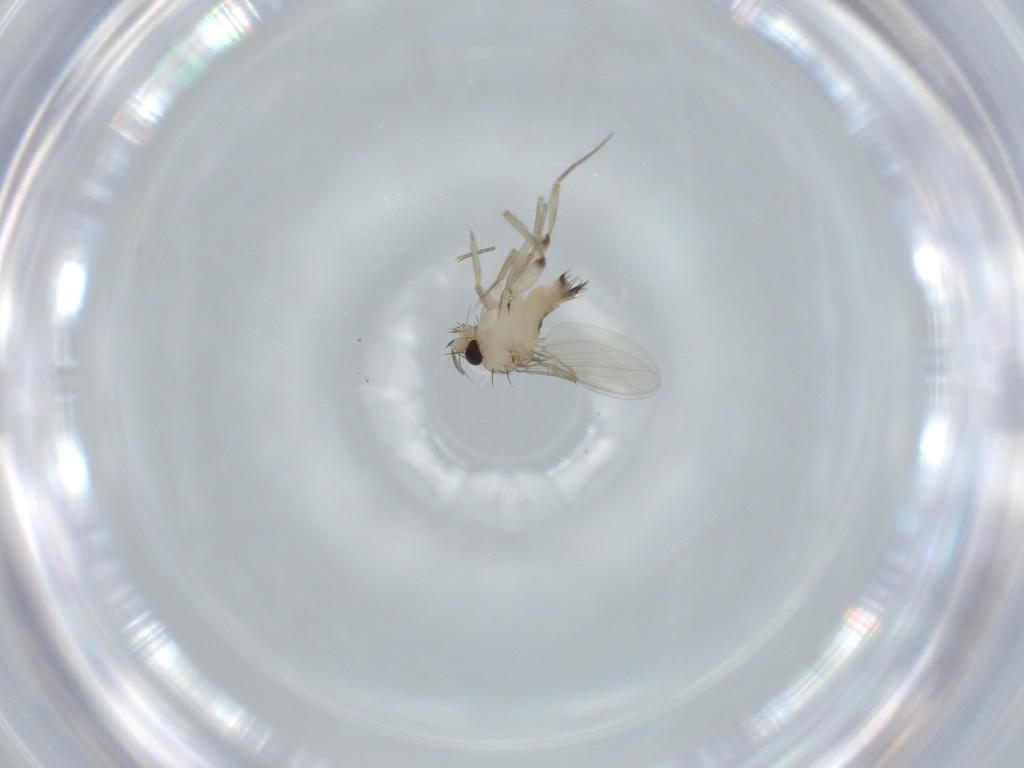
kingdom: Animalia
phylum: Arthropoda
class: Insecta
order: Diptera
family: Phoridae
